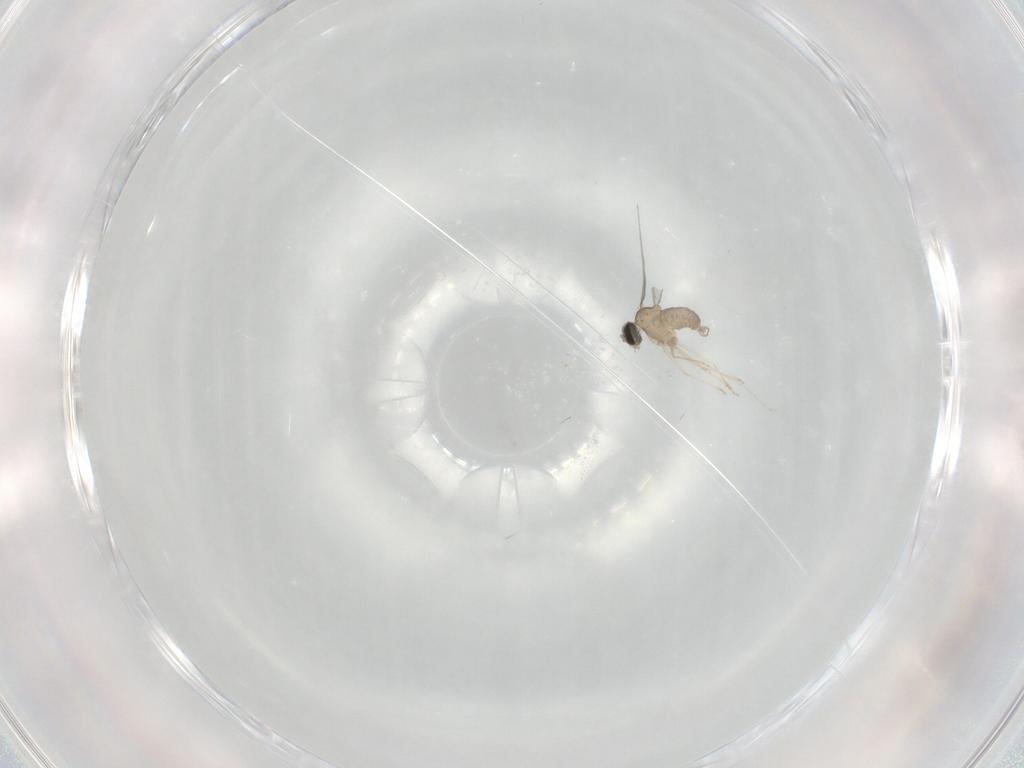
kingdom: Animalia
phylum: Arthropoda
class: Insecta
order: Diptera
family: Cecidomyiidae
